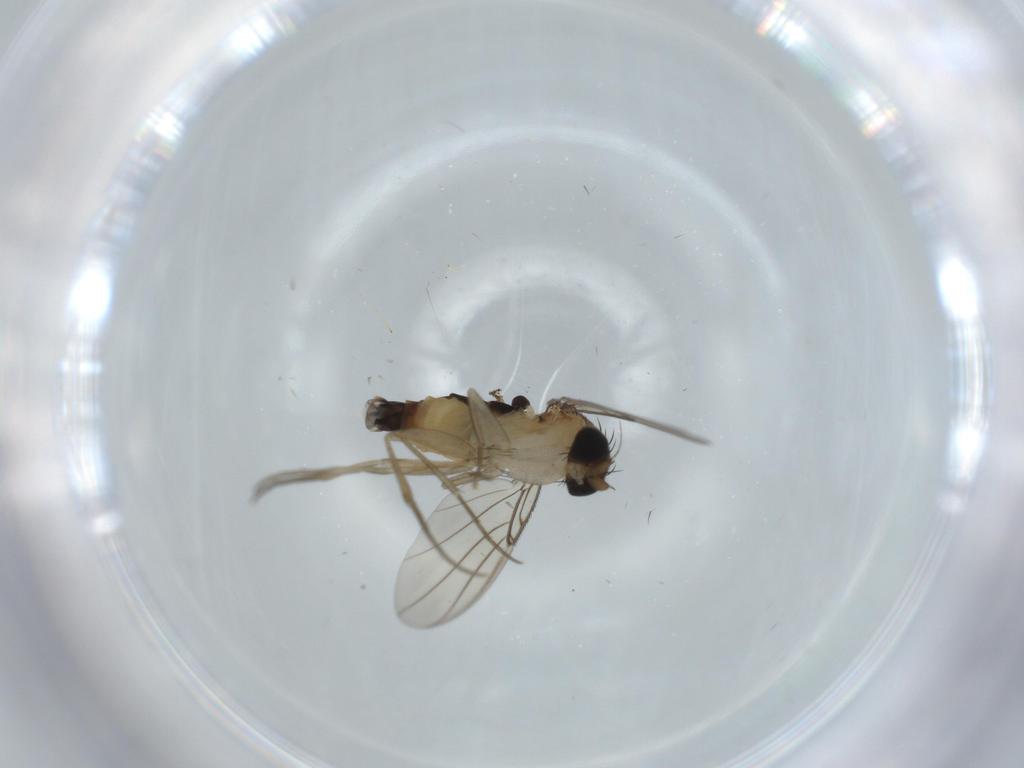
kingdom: Animalia
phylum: Arthropoda
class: Insecta
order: Diptera
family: Phoridae
